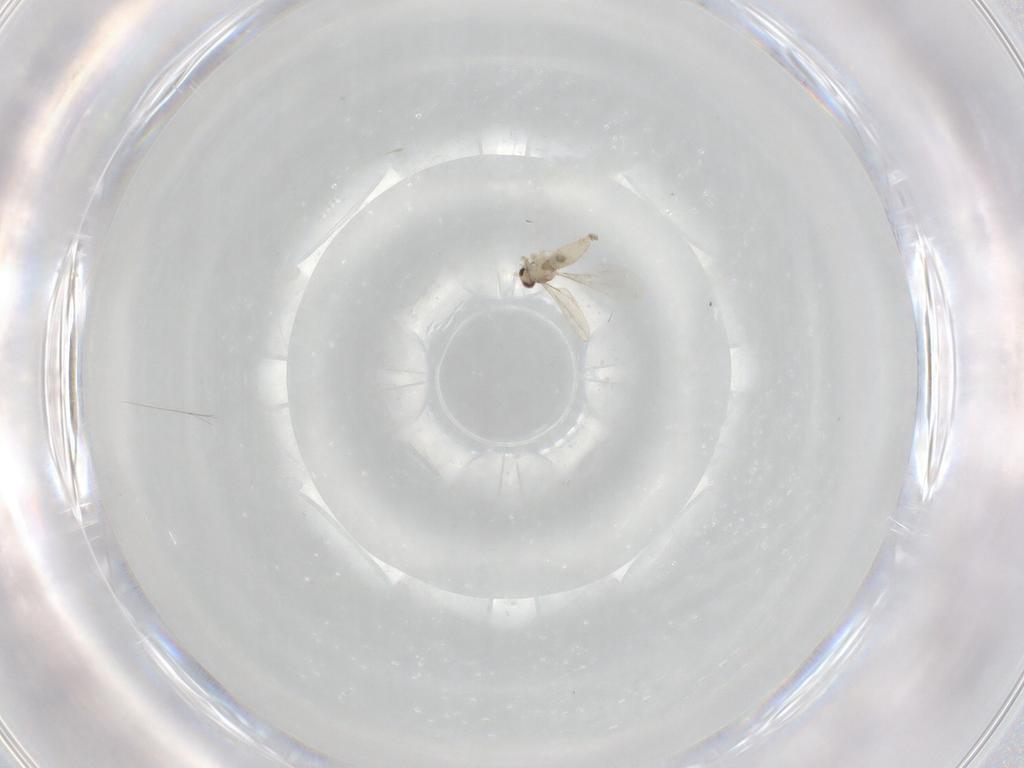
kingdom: Animalia
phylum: Arthropoda
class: Insecta
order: Diptera
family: Cecidomyiidae
